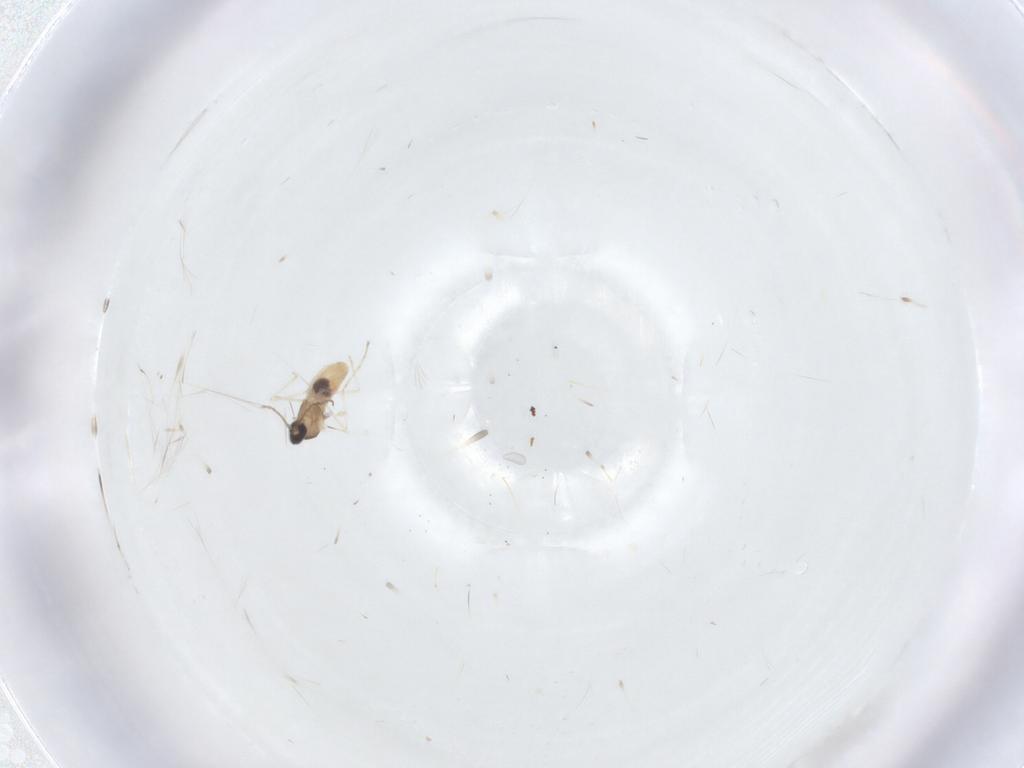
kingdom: Animalia
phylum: Arthropoda
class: Insecta
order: Diptera
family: Cecidomyiidae
